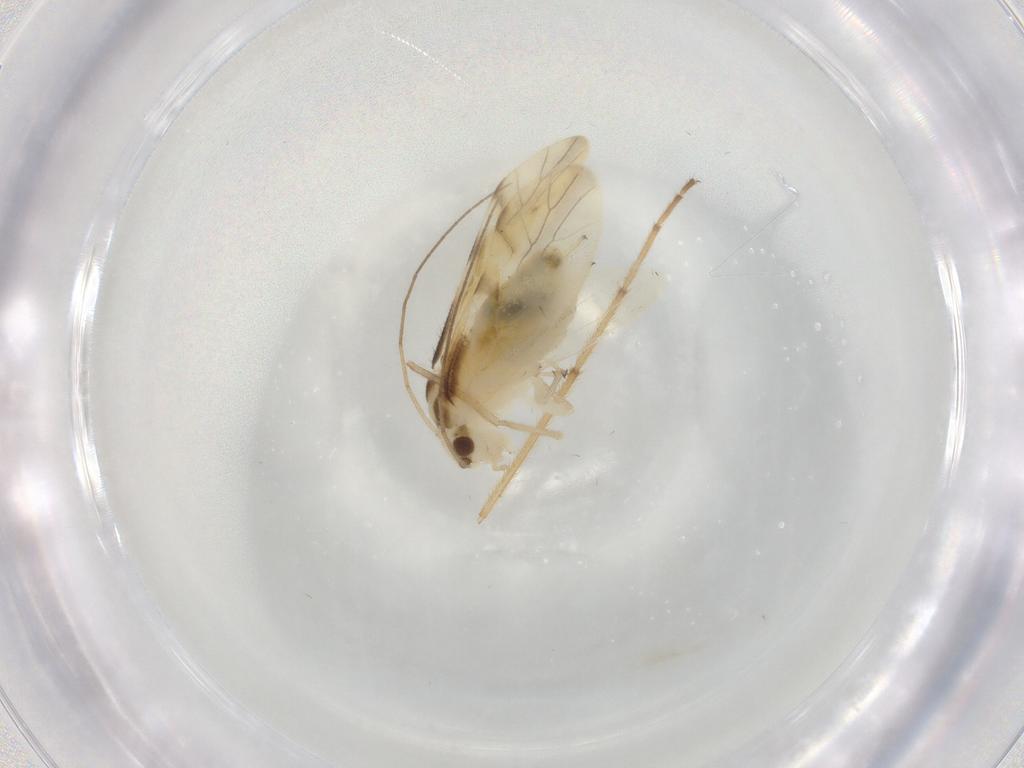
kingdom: Animalia
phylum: Arthropoda
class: Insecta
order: Psocodea
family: Caeciliusidae
